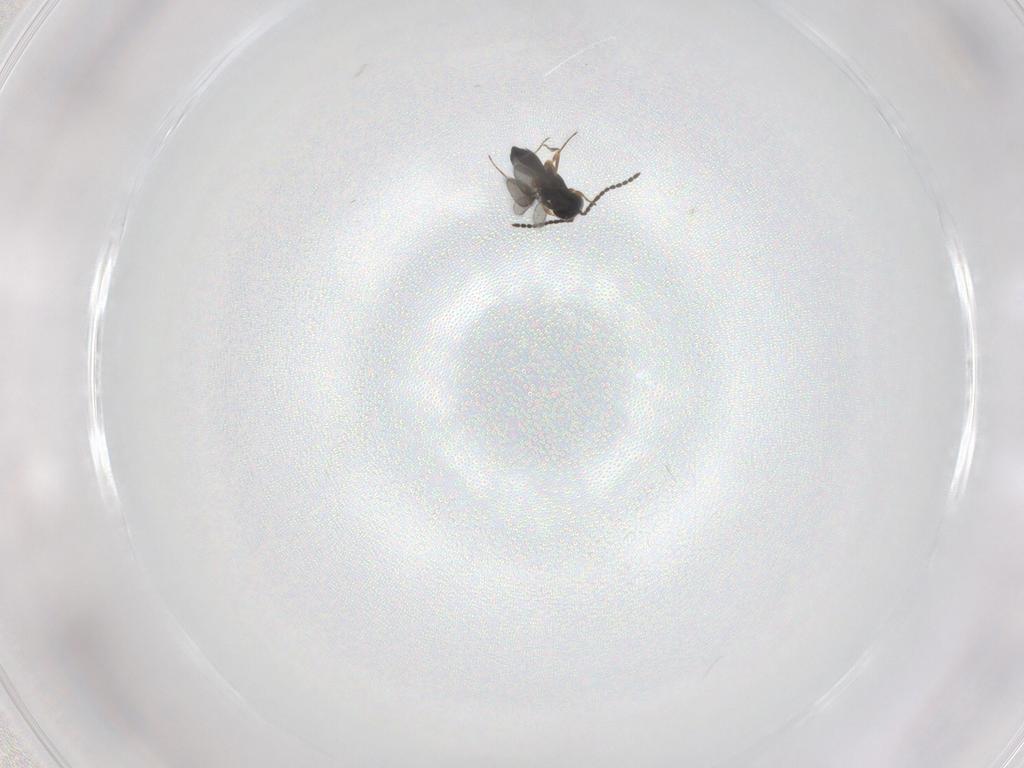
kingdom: Animalia
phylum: Arthropoda
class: Insecta
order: Hymenoptera
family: Scelionidae
